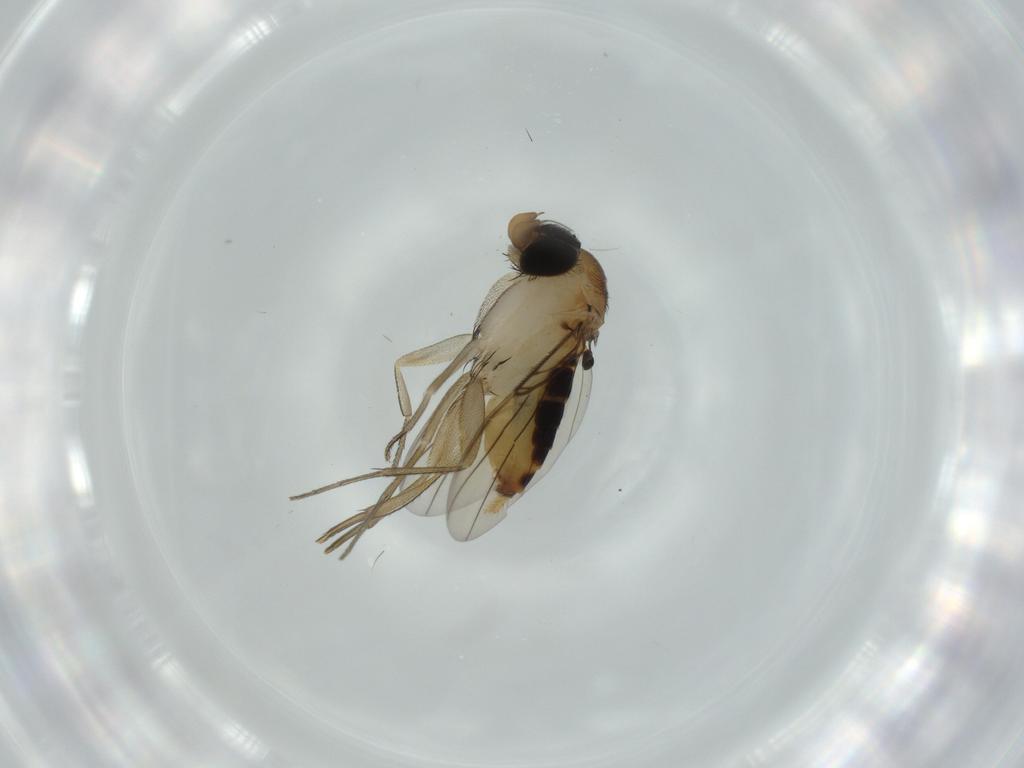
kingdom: Animalia
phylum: Arthropoda
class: Insecta
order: Diptera
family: Phoridae
